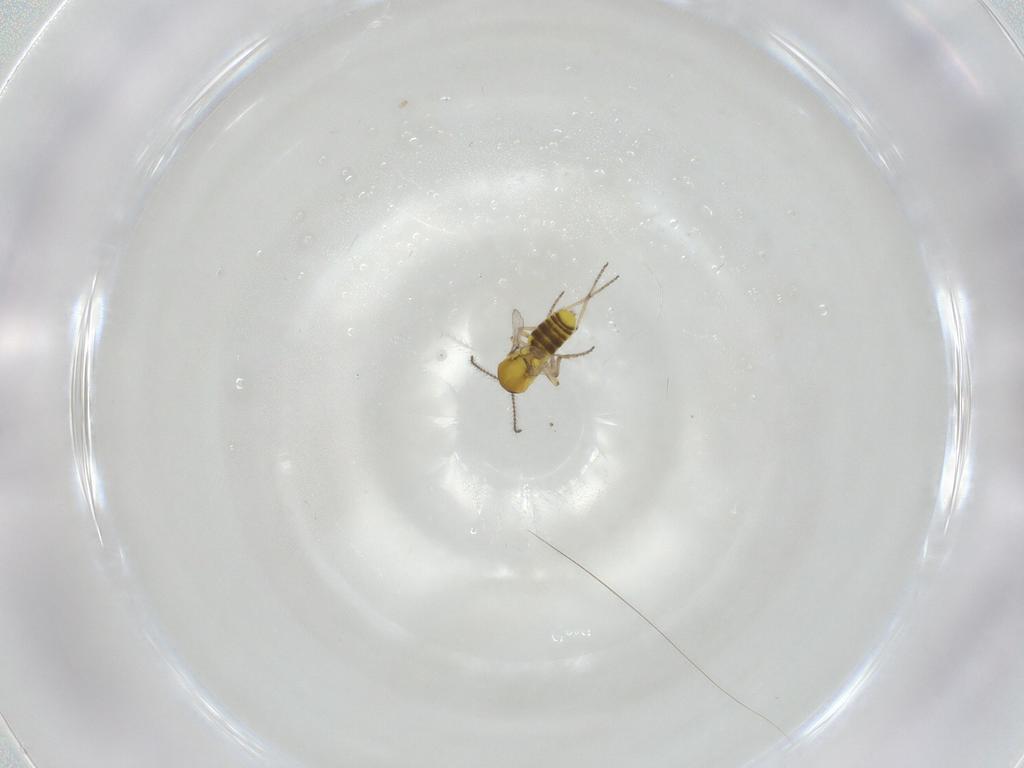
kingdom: Animalia
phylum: Arthropoda
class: Insecta
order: Diptera
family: Ceratopogonidae
